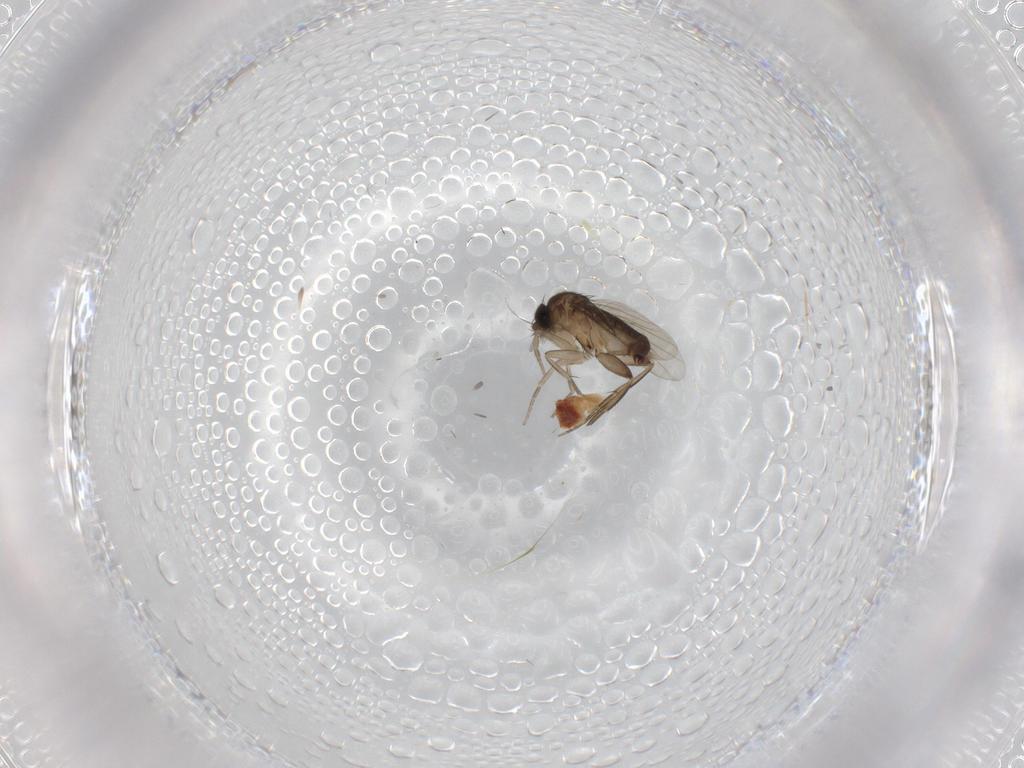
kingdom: Animalia
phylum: Arthropoda
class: Insecta
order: Diptera
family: Phoridae
